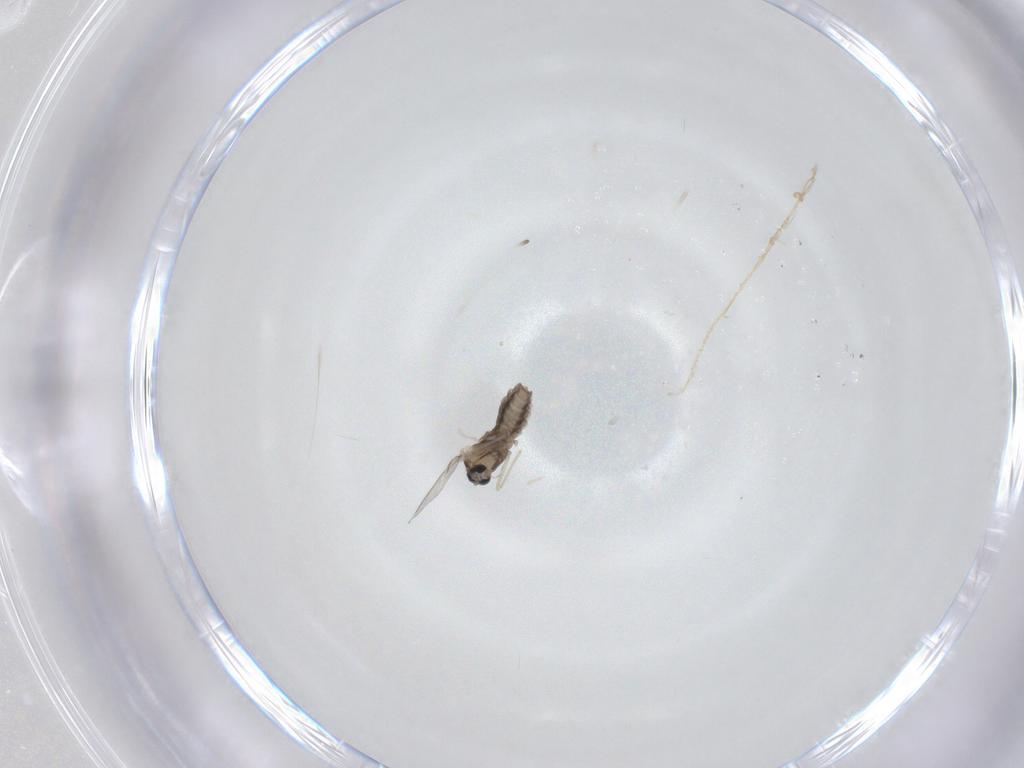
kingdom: Animalia
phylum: Arthropoda
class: Insecta
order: Diptera
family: Cecidomyiidae
